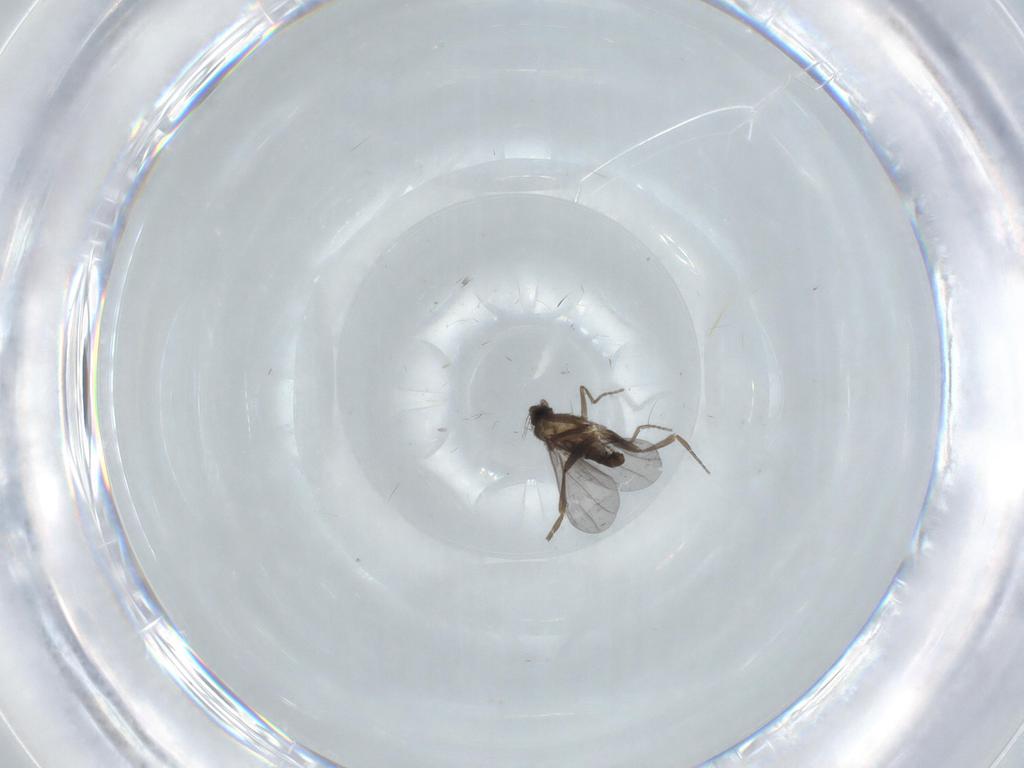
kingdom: Animalia
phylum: Arthropoda
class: Insecta
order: Diptera
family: Phoridae
